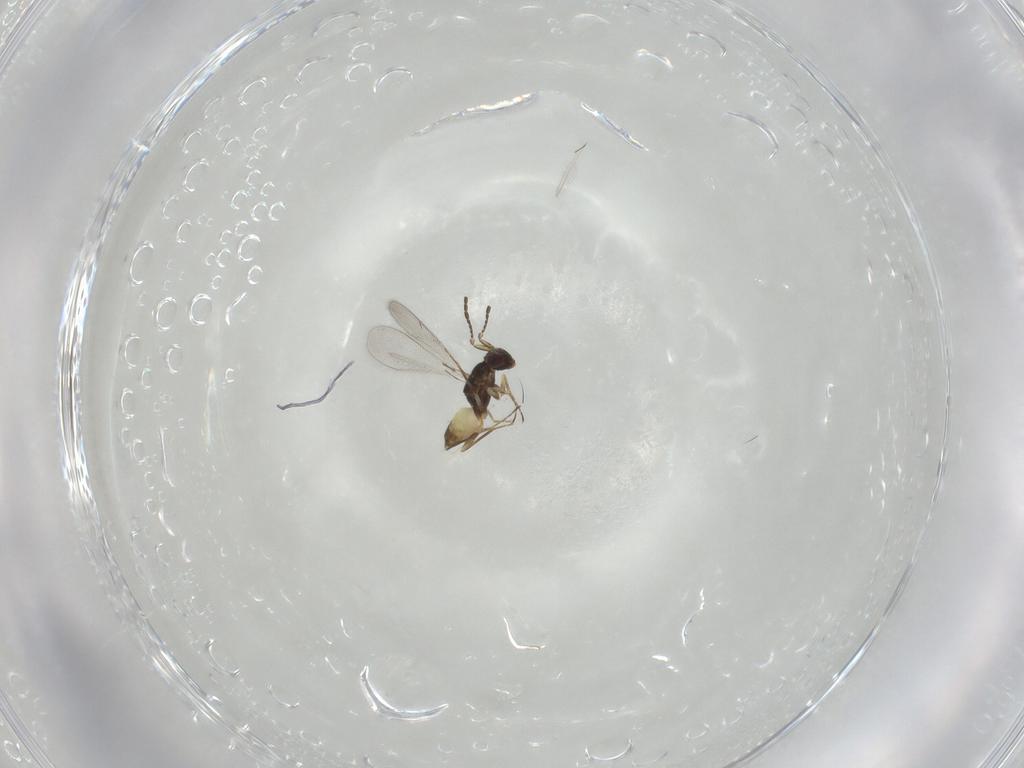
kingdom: Animalia
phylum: Arthropoda
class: Insecta
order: Hymenoptera
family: Mymaridae
